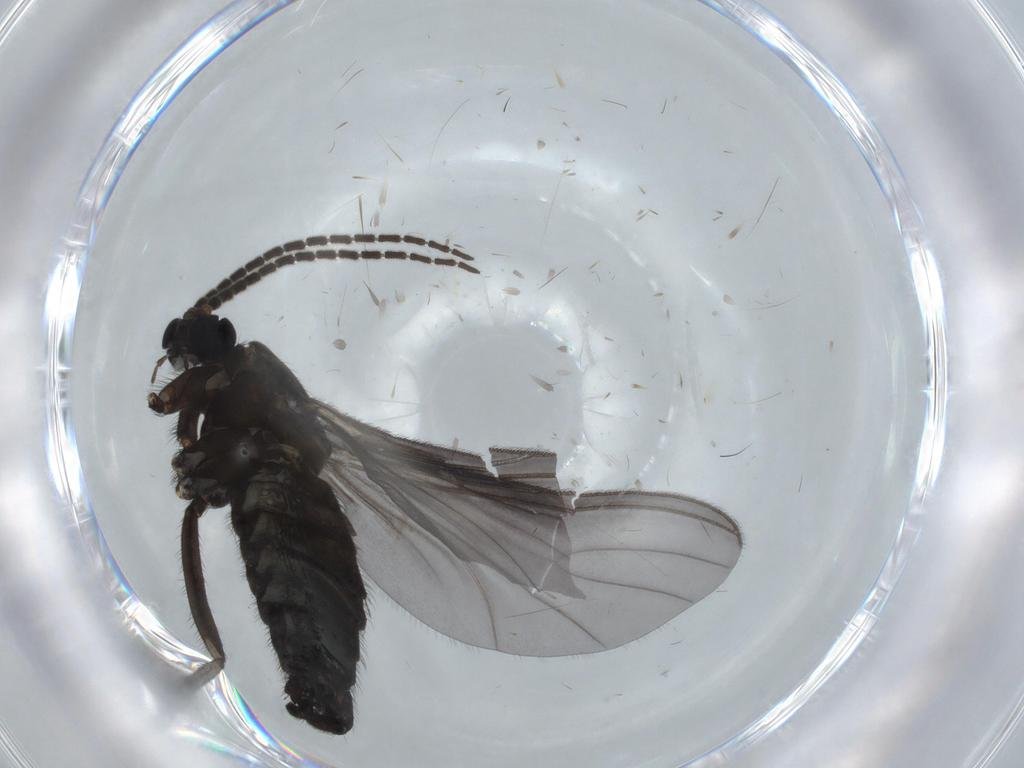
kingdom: Animalia
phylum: Arthropoda
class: Insecta
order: Diptera
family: Sciaridae
